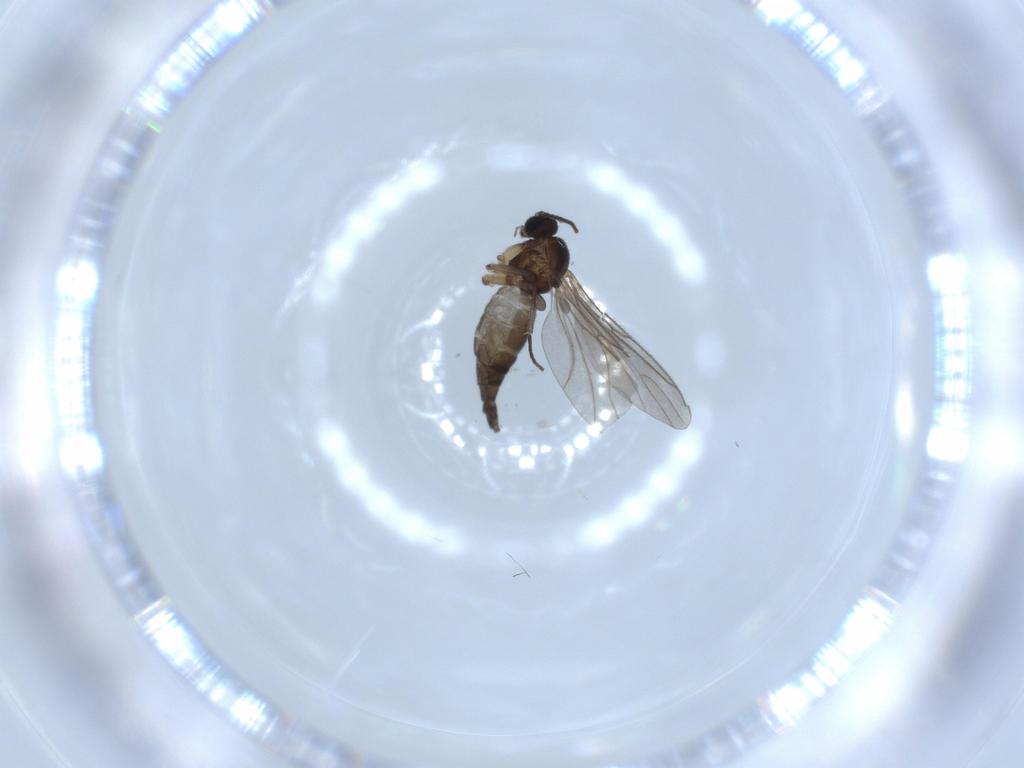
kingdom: Animalia
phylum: Arthropoda
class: Insecta
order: Diptera
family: Sciaridae
